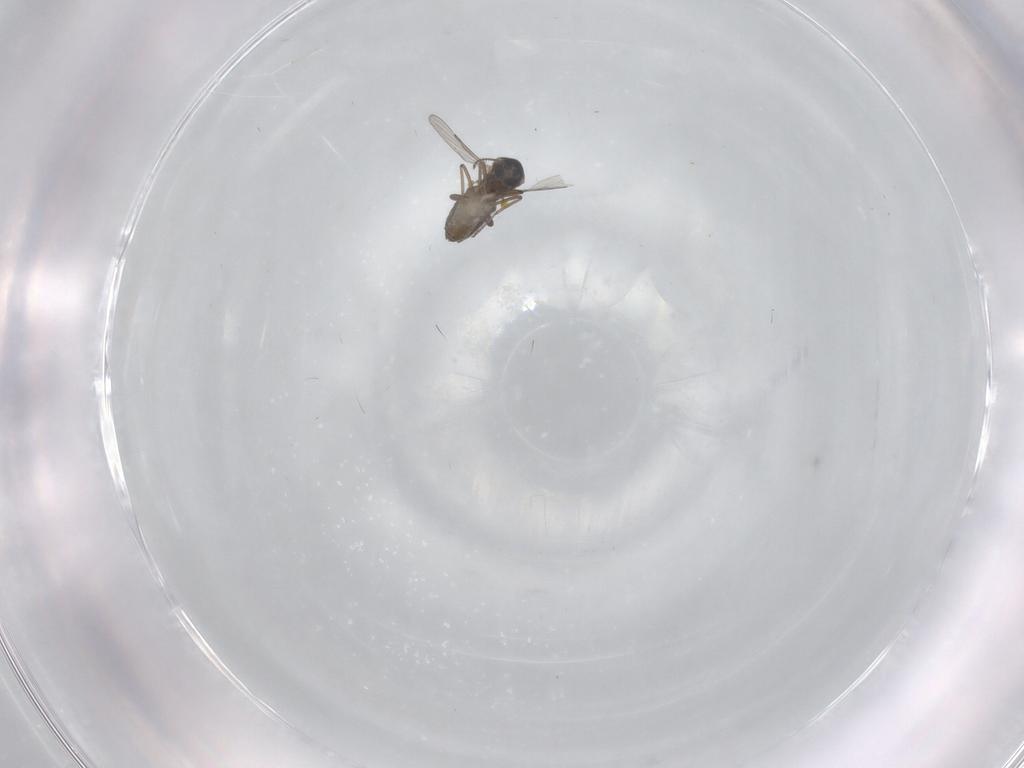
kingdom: Animalia
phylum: Arthropoda
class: Insecta
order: Diptera
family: Ceratopogonidae
